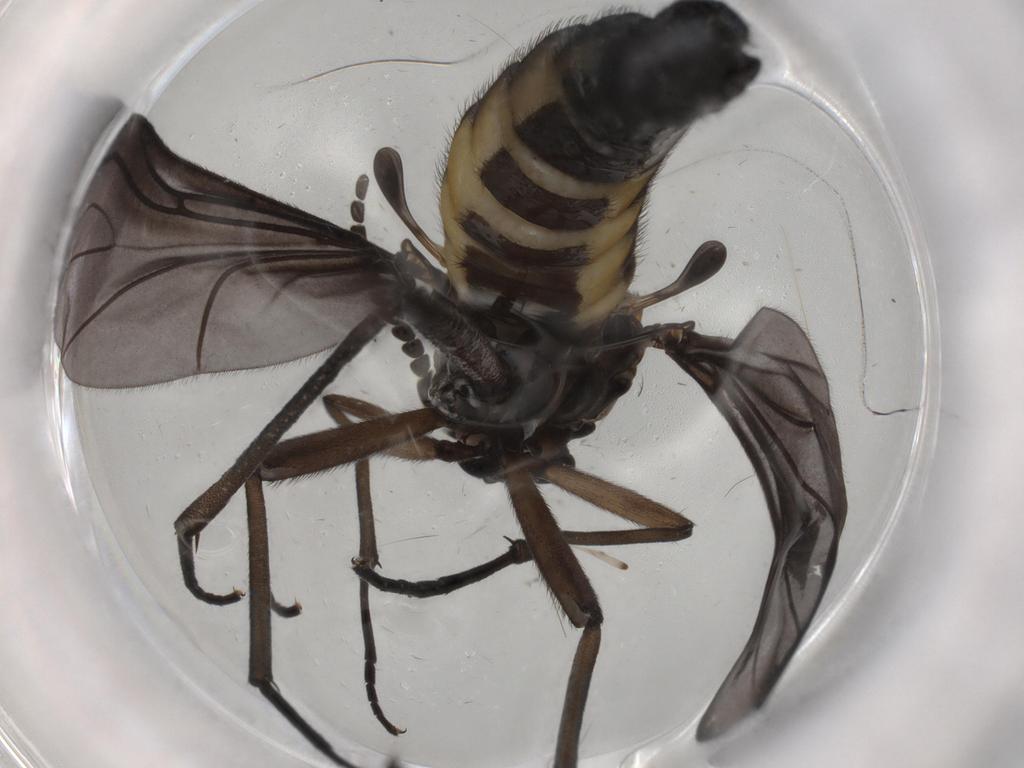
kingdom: Animalia
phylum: Arthropoda
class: Insecta
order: Diptera
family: Sciaridae
